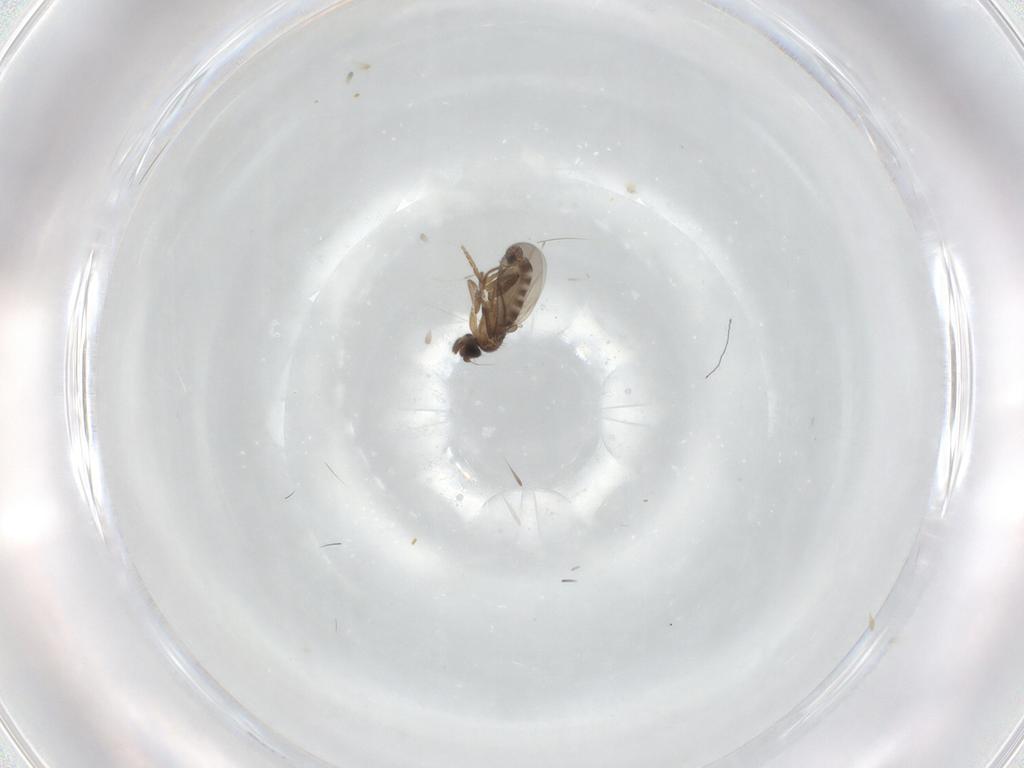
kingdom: Animalia
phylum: Arthropoda
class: Insecta
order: Diptera
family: Cecidomyiidae
